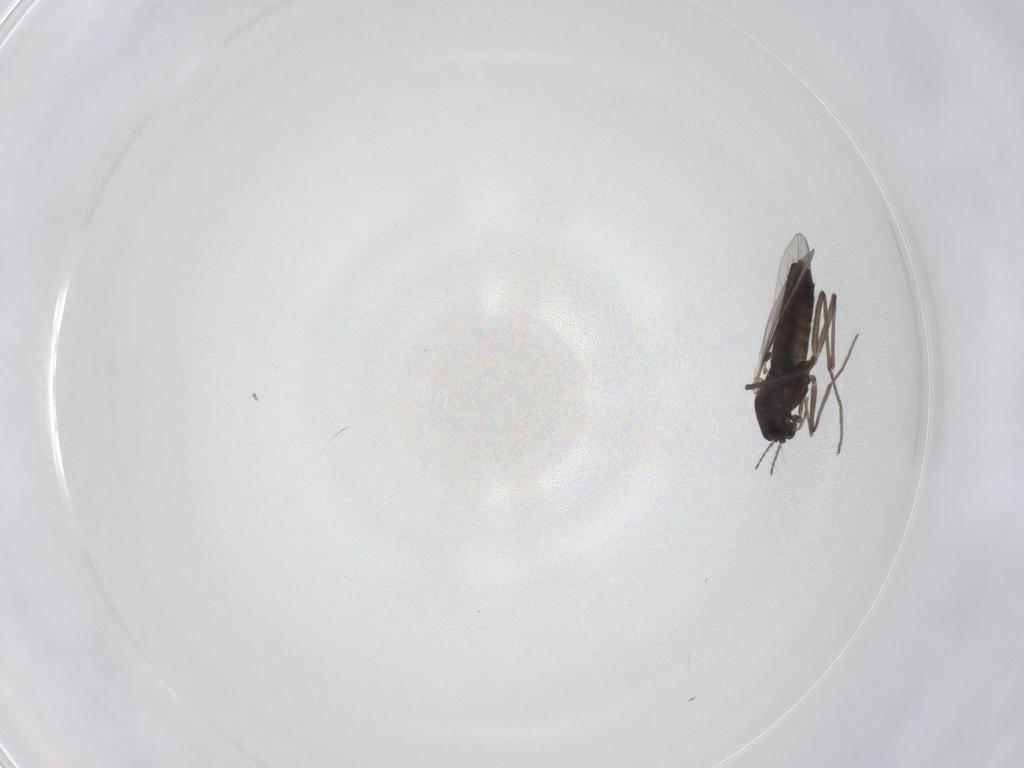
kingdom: Animalia
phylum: Arthropoda
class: Insecta
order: Diptera
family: Chironomidae
